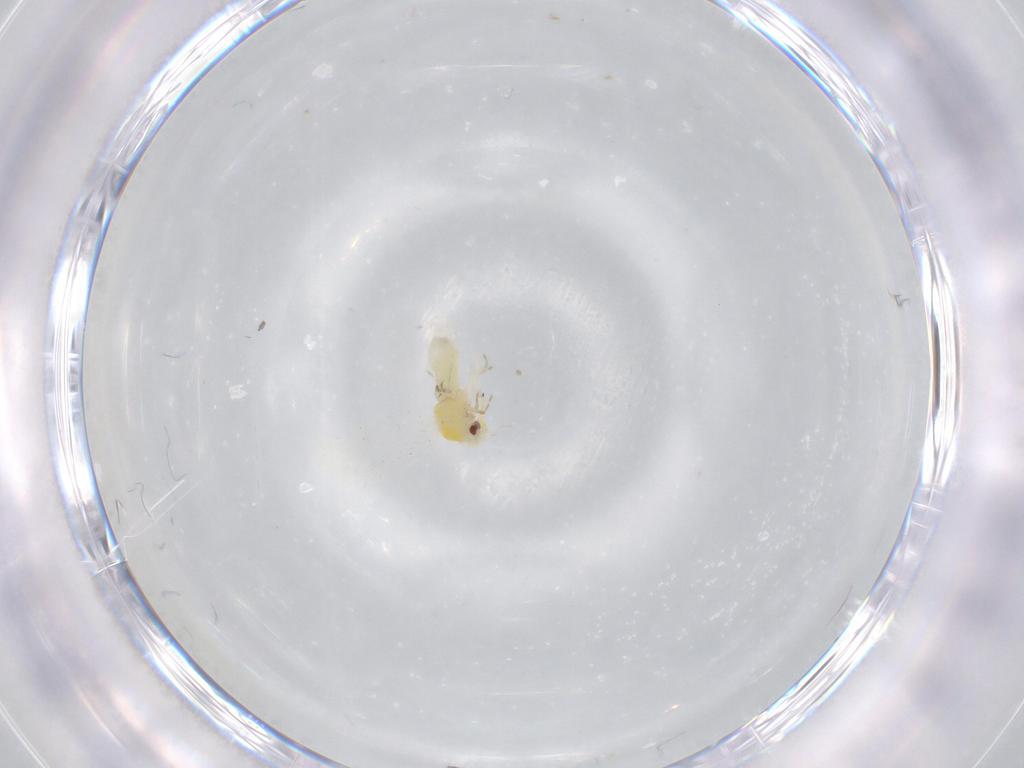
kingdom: Animalia
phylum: Arthropoda
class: Insecta
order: Hemiptera
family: Aleyrodidae
